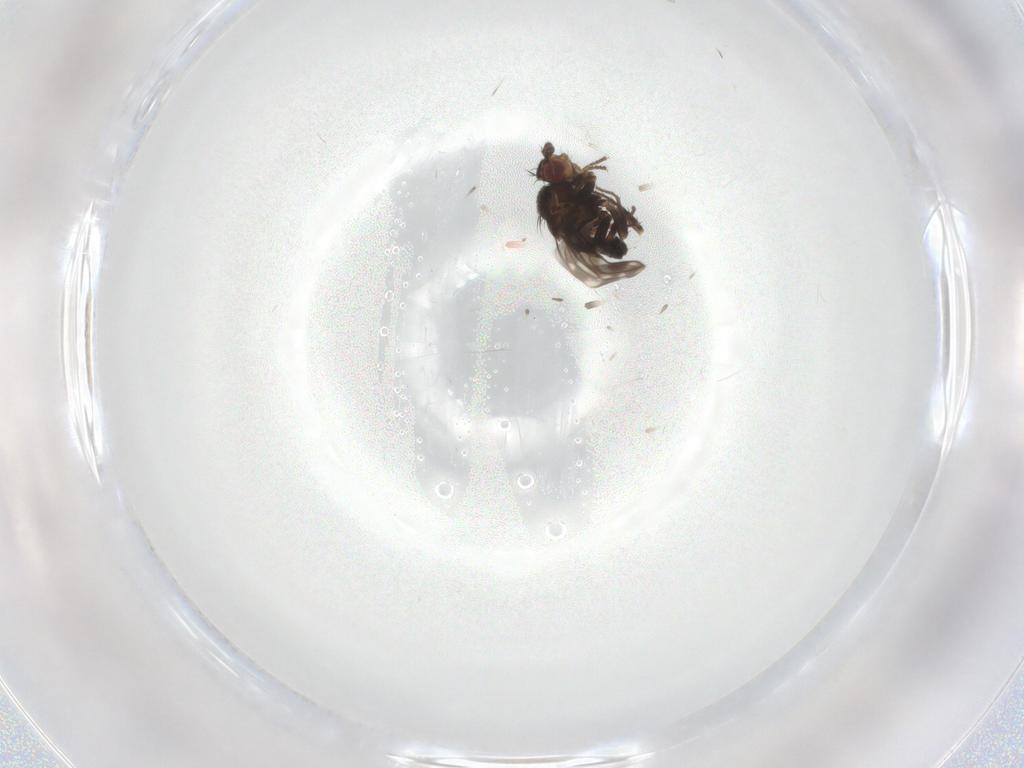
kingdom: Animalia
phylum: Arthropoda
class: Insecta
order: Diptera
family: Sphaeroceridae
